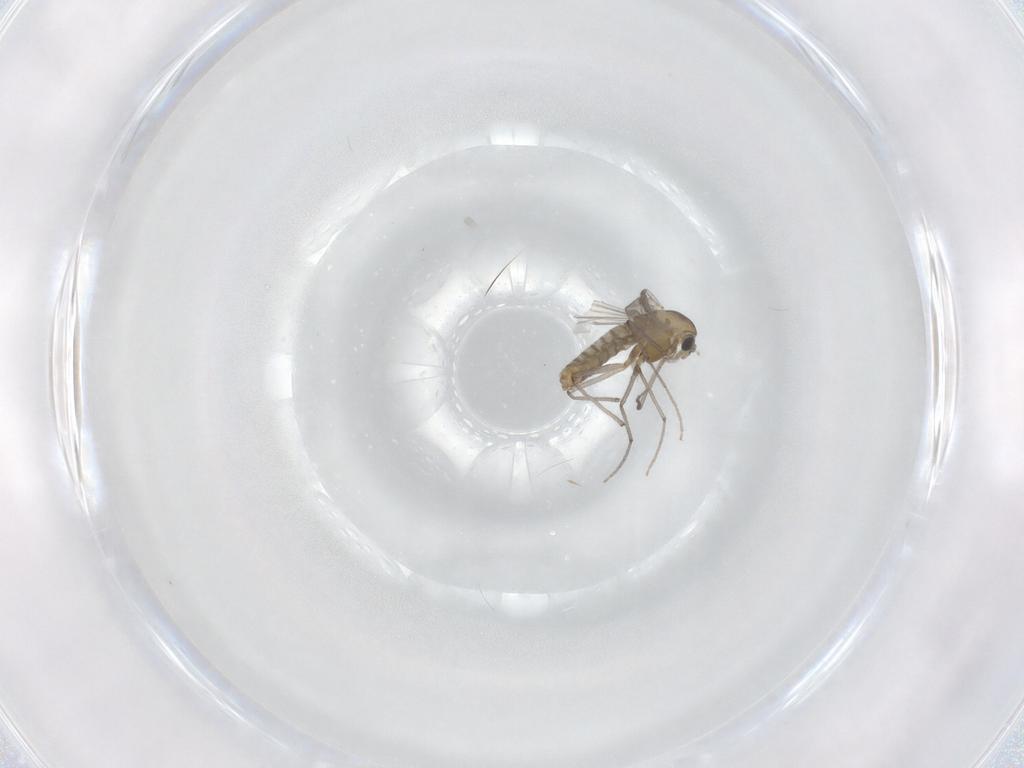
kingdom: Animalia
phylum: Arthropoda
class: Insecta
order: Diptera
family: Chironomidae
